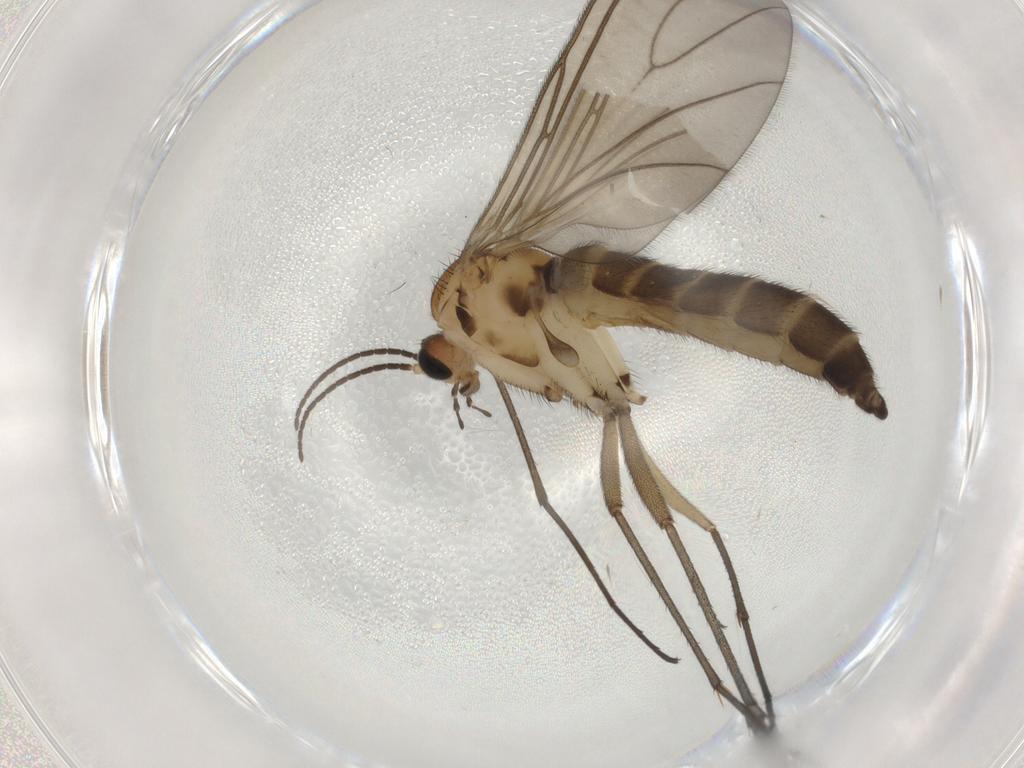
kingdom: Animalia
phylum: Arthropoda
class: Insecta
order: Diptera
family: Sciaridae
